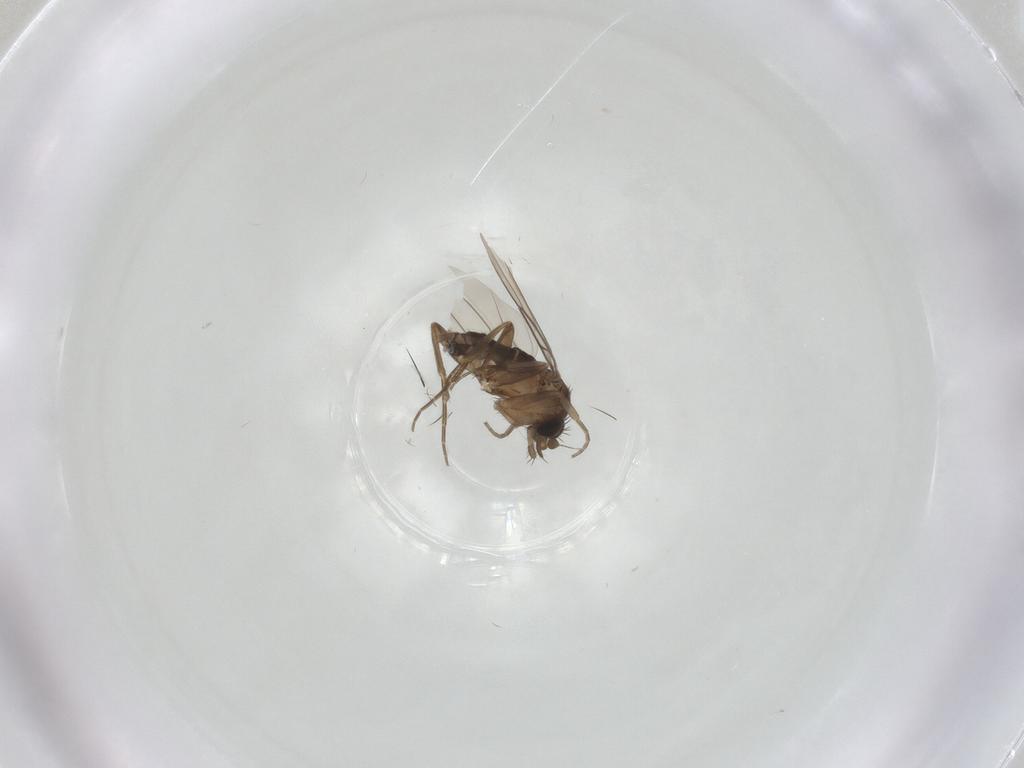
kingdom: Animalia
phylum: Arthropoda
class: Insecta
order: Diptera
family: Phoridae
